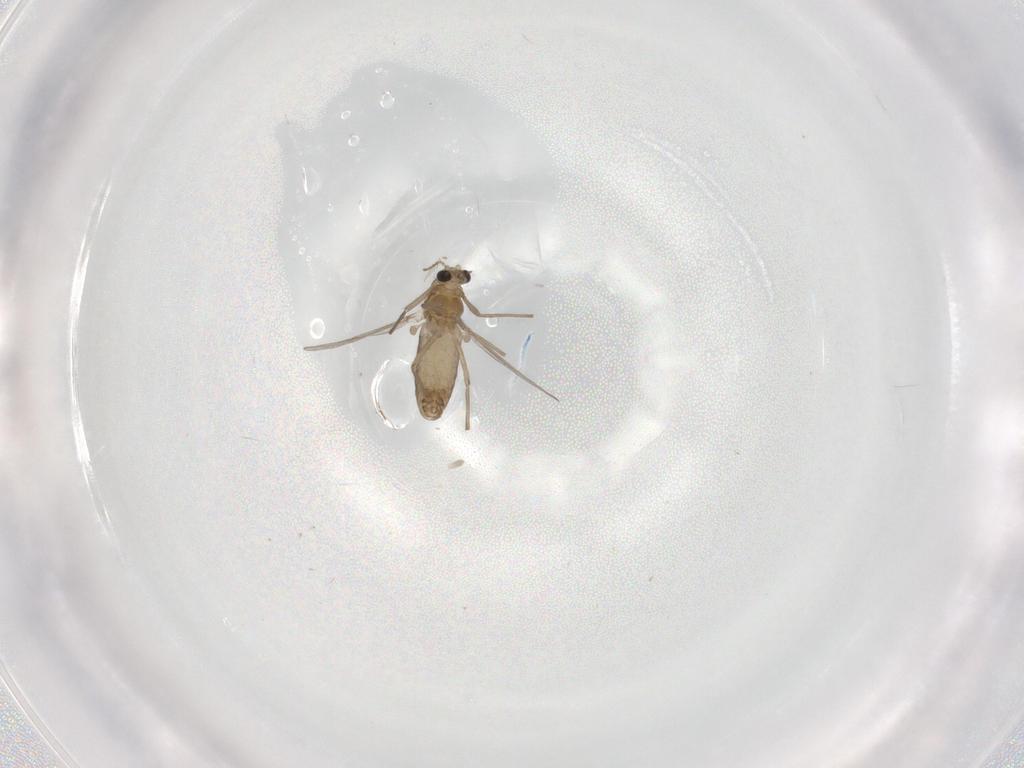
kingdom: Animalia
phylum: Arthropoda
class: Insecta
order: Diptera
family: Chironomidae
